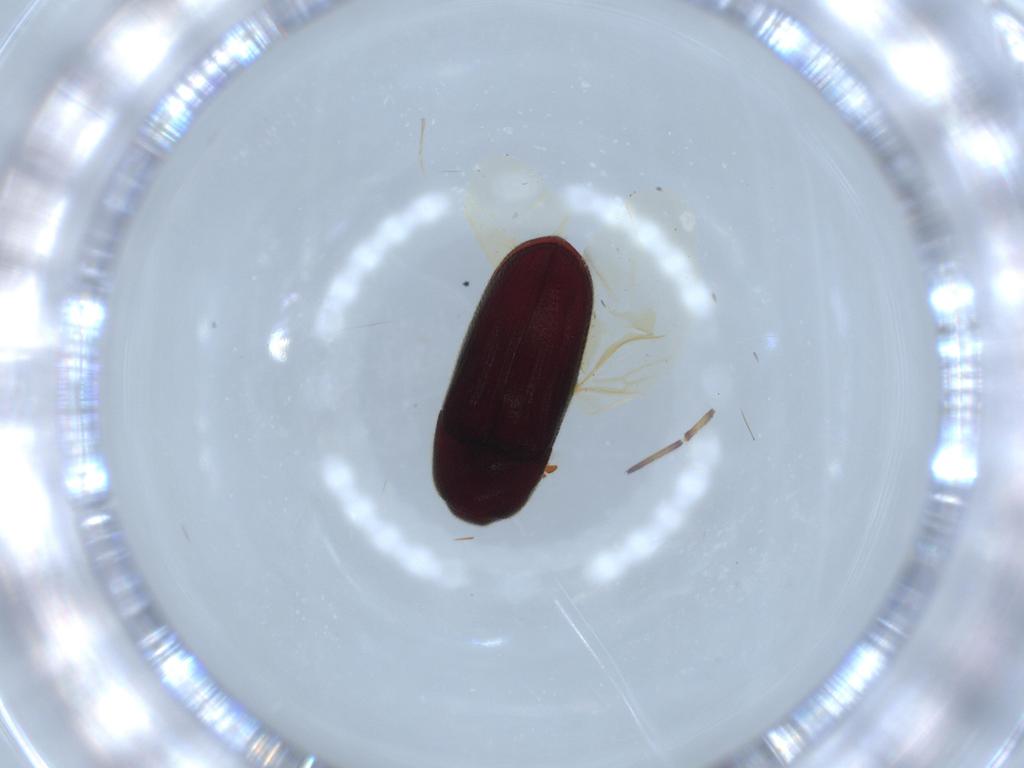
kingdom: Animalia
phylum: Arthropoda
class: Insecta
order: Coleoptera
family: Throscidae
